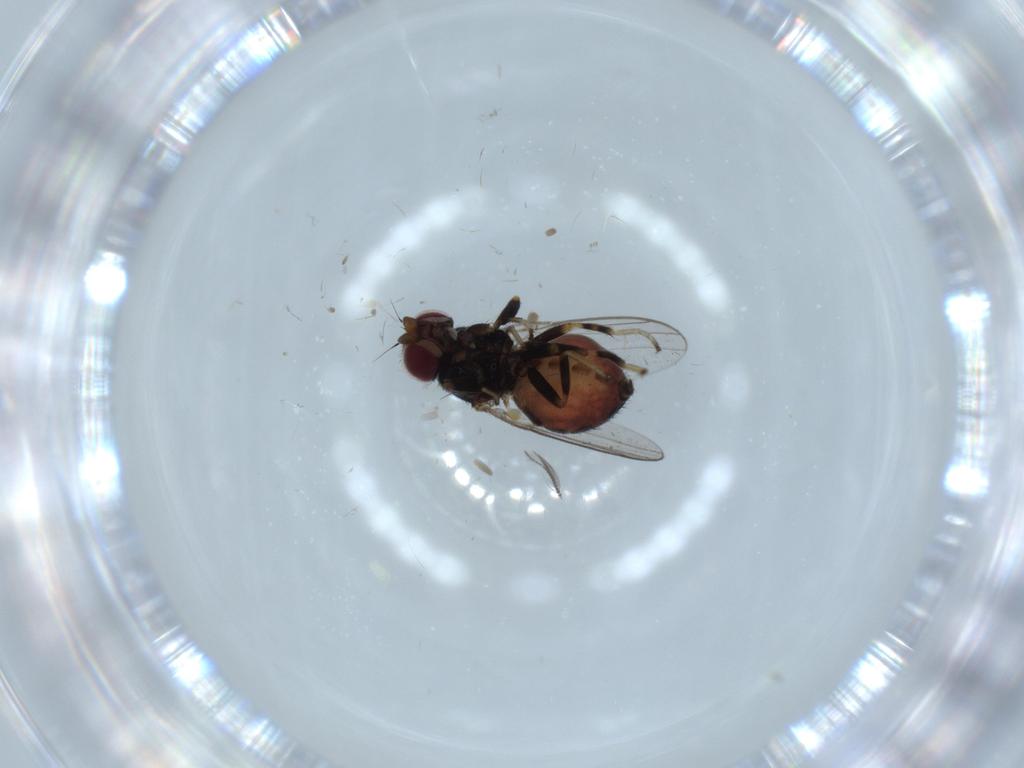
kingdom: Animalia
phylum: Arthropoda
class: Insecta
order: Diptera
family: Chloropidae
